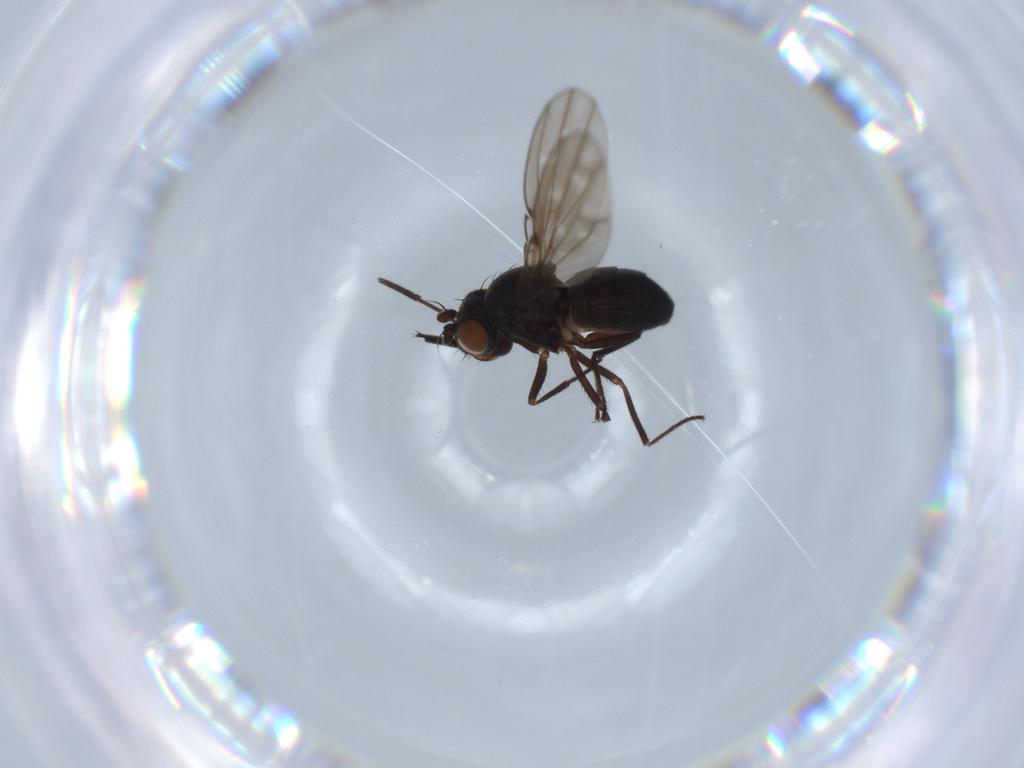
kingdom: Animalia
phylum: Arthropoda
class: Insecta
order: Diptera
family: Ephydridae
